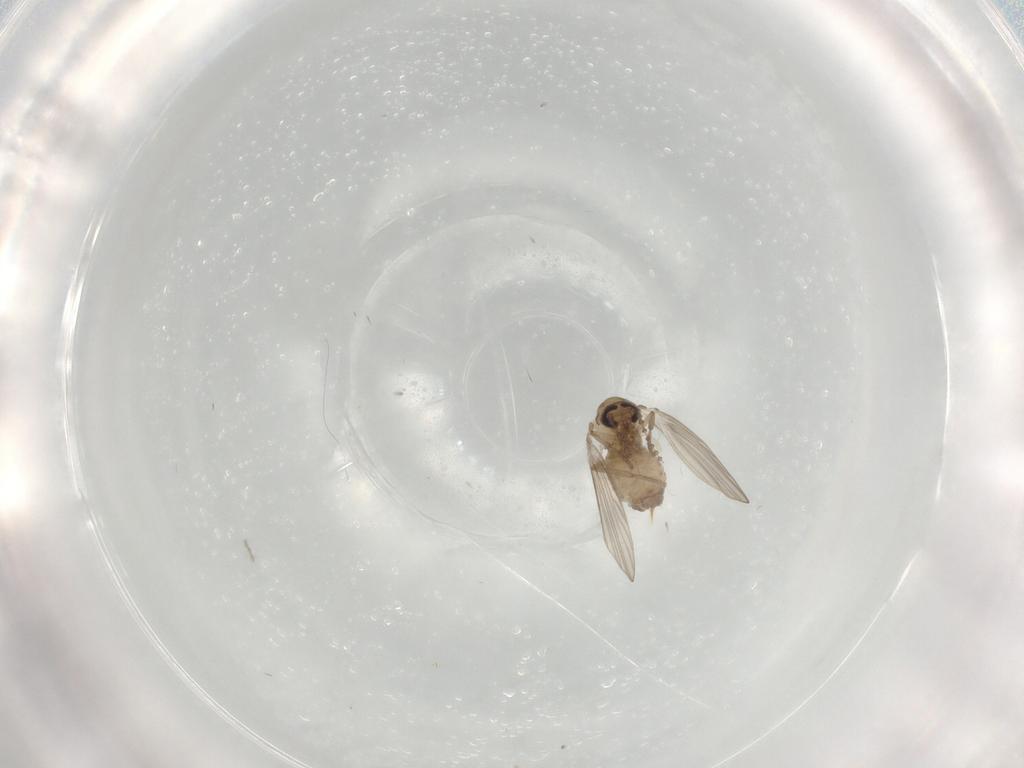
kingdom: Animalia
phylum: Arthropoda
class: Insecta
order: Diptera
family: Psychodidae
